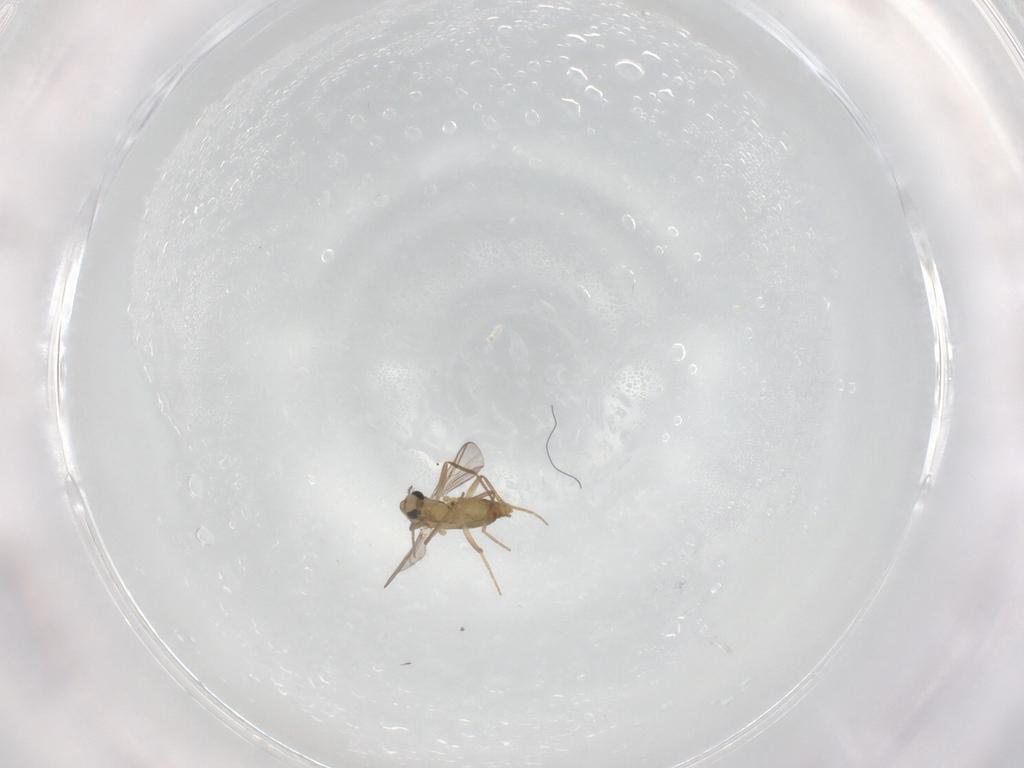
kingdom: Animalia
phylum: Arthropoda
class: Insecta
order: Diptera
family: Chironomidae
